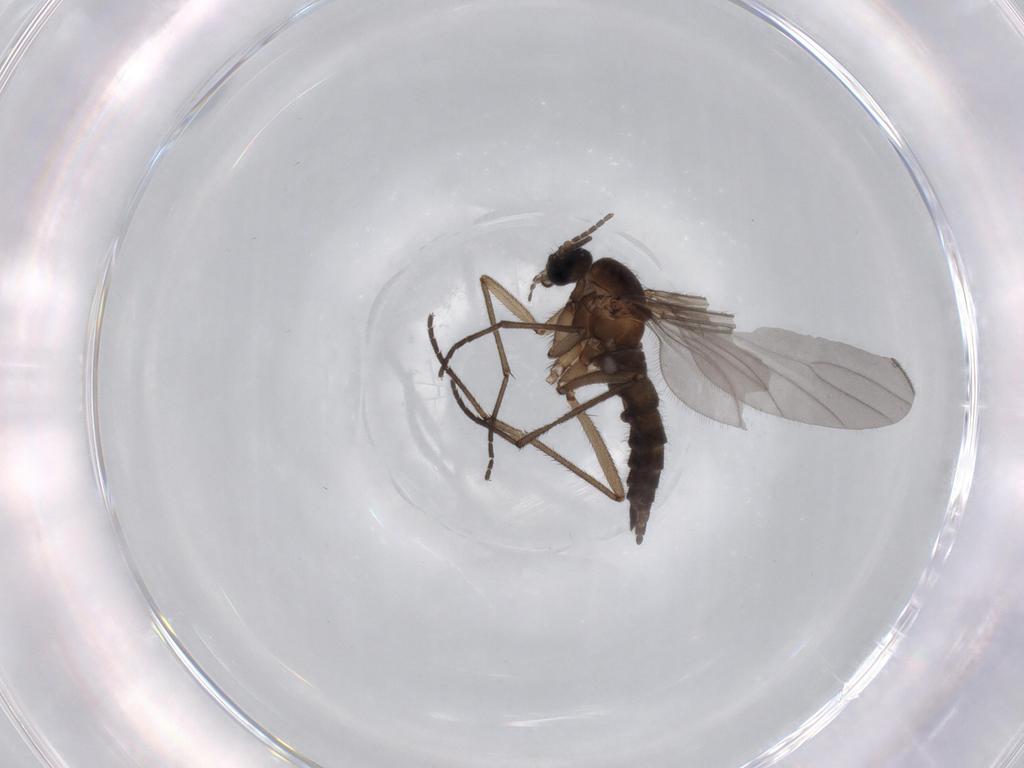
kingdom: Animalia
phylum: Arthropoda
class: Insecta
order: Diptera
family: Sciaridae
